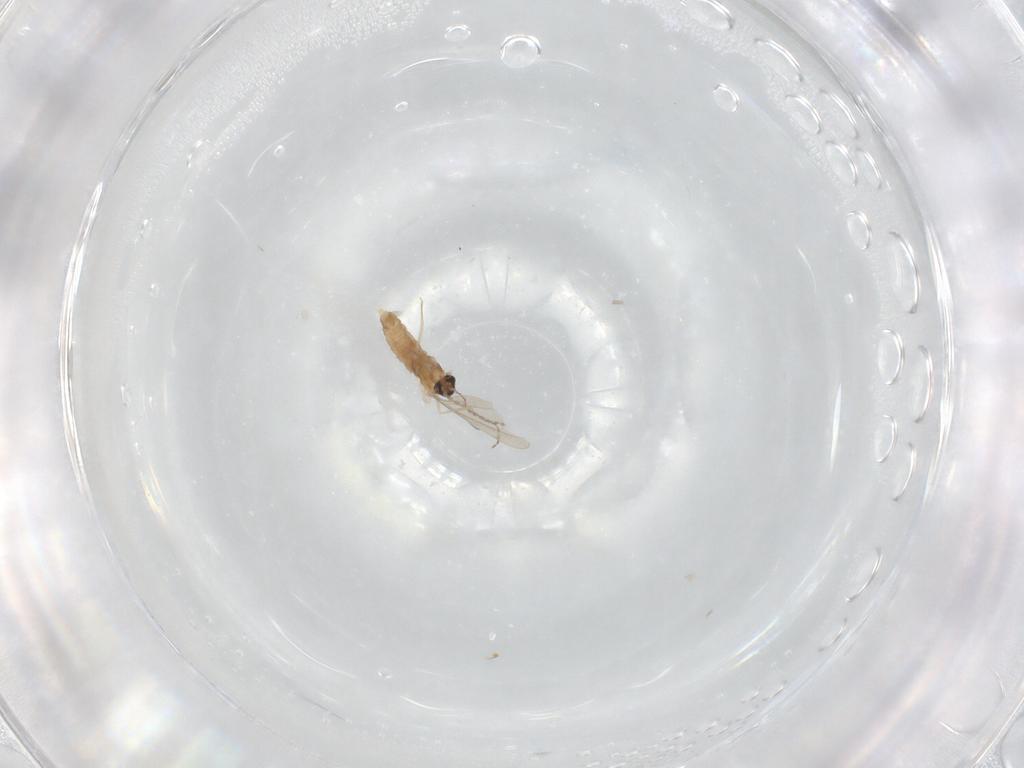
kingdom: Animalia
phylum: Arthropoda
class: Insecta
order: Diptera
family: Cecidomyiidae
